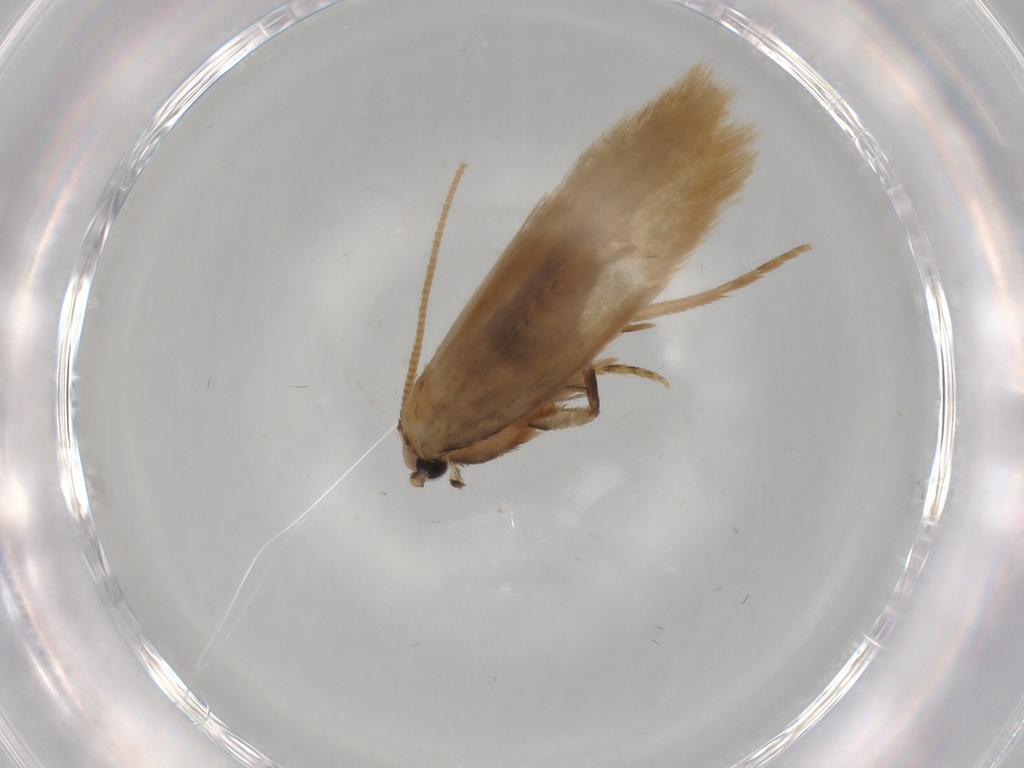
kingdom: Animalia
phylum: Arthropoda
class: Insecta
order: Lepidoptera
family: Nepticulidae
